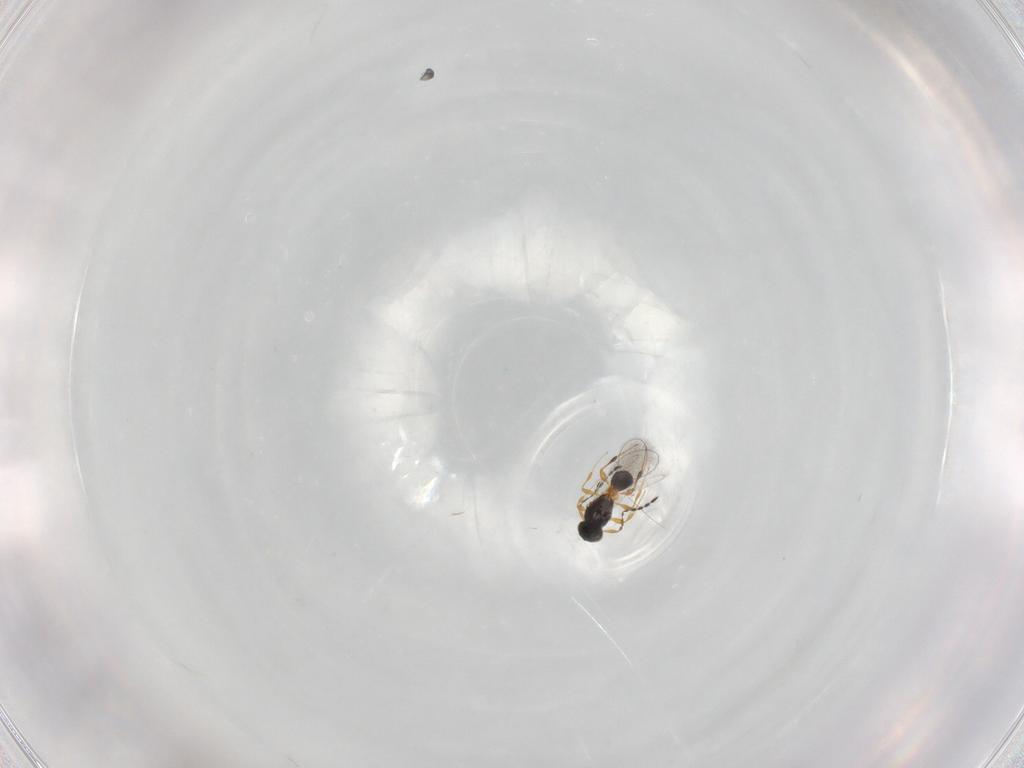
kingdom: Animalia
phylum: Arthropoda
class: Insecta
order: Hymenoptera
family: Platygastridae
